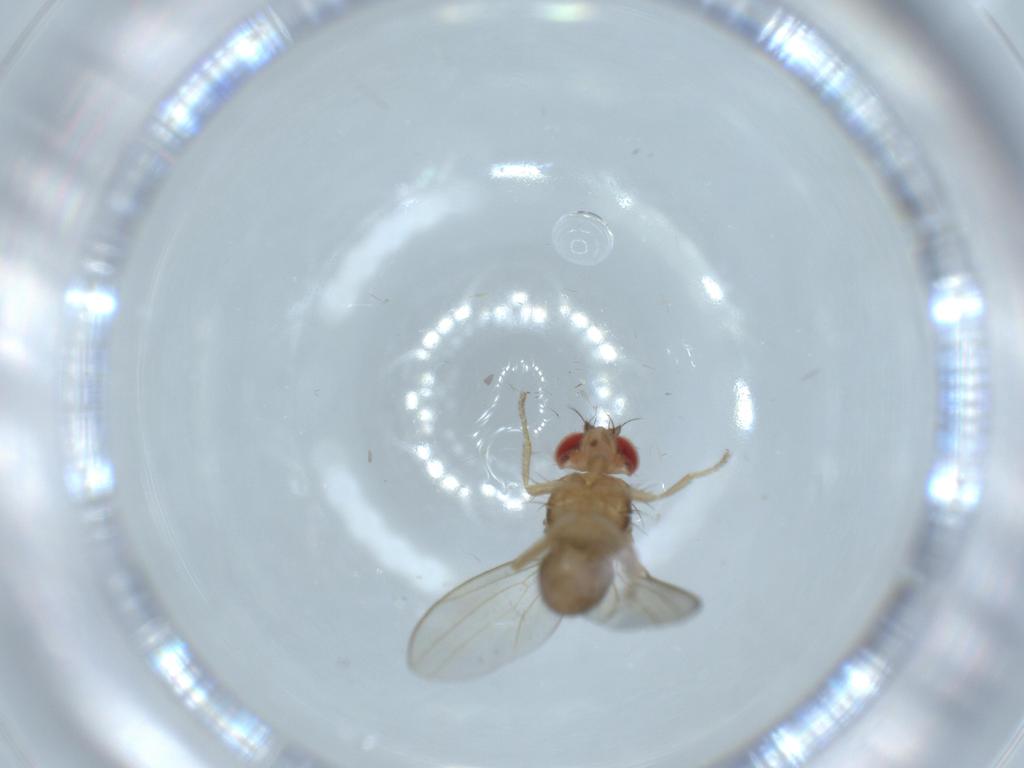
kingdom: Animalia
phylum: Arthropoda
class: Insecta
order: Diptera
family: Drosophilidae
